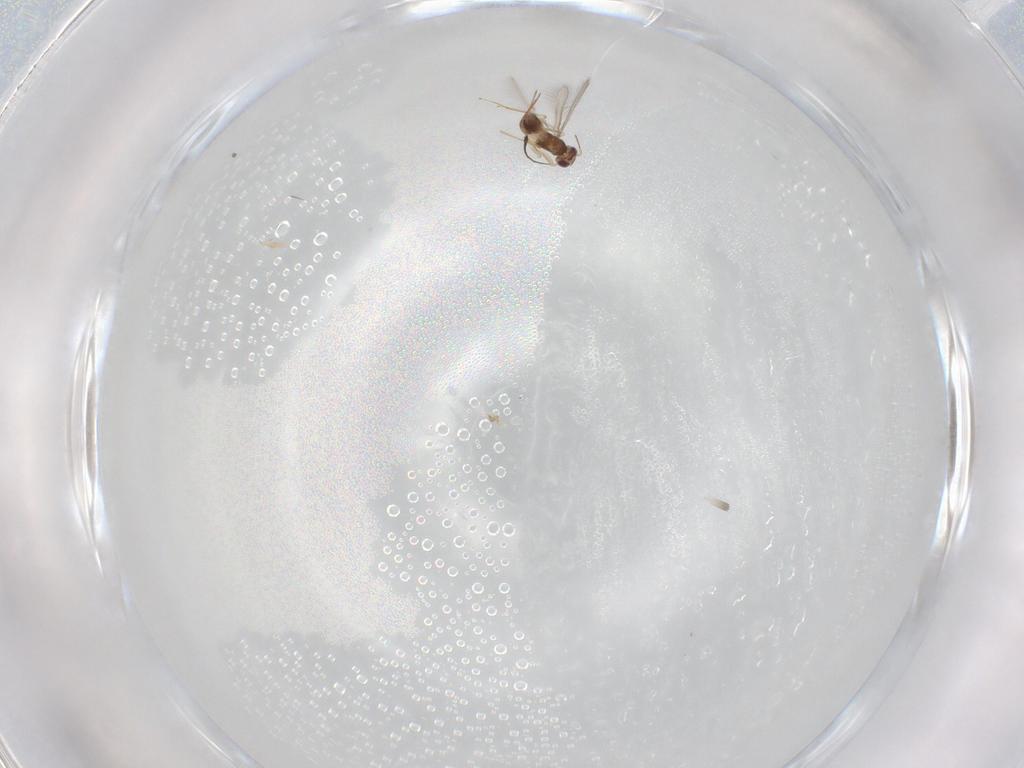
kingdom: Animalia
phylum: Arthropoda
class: Insecta
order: Hymenoptera
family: Mymaridae
